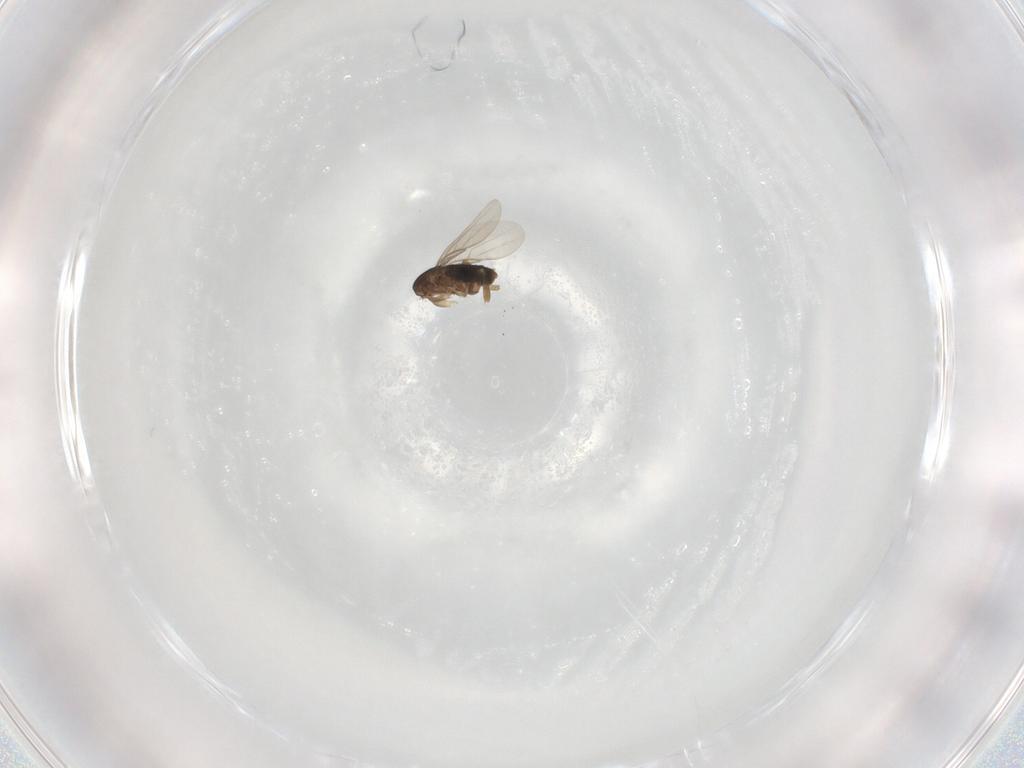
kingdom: Animalia
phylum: Arthropoda
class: Insecta
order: Diptera
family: Phoridae
